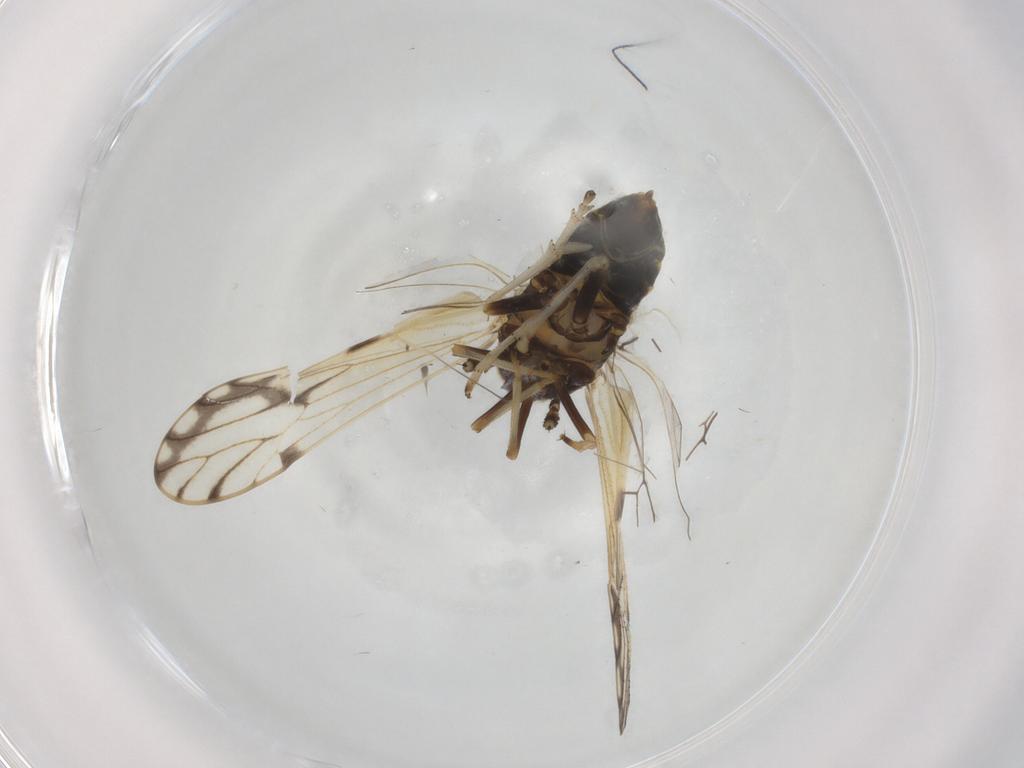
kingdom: Animalia
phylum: Arthropoda
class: Insecta
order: Hemiptera
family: Delphacidae
